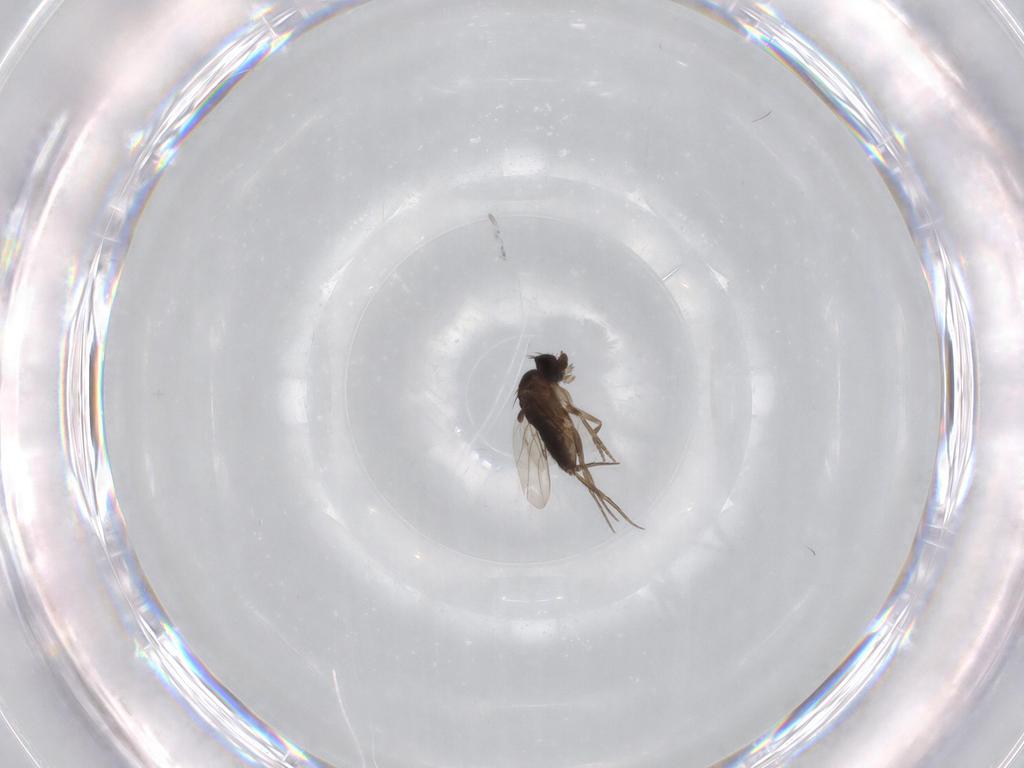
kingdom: Animalia
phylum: Arthropoda
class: Insecta
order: Diptera
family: Phoridae
